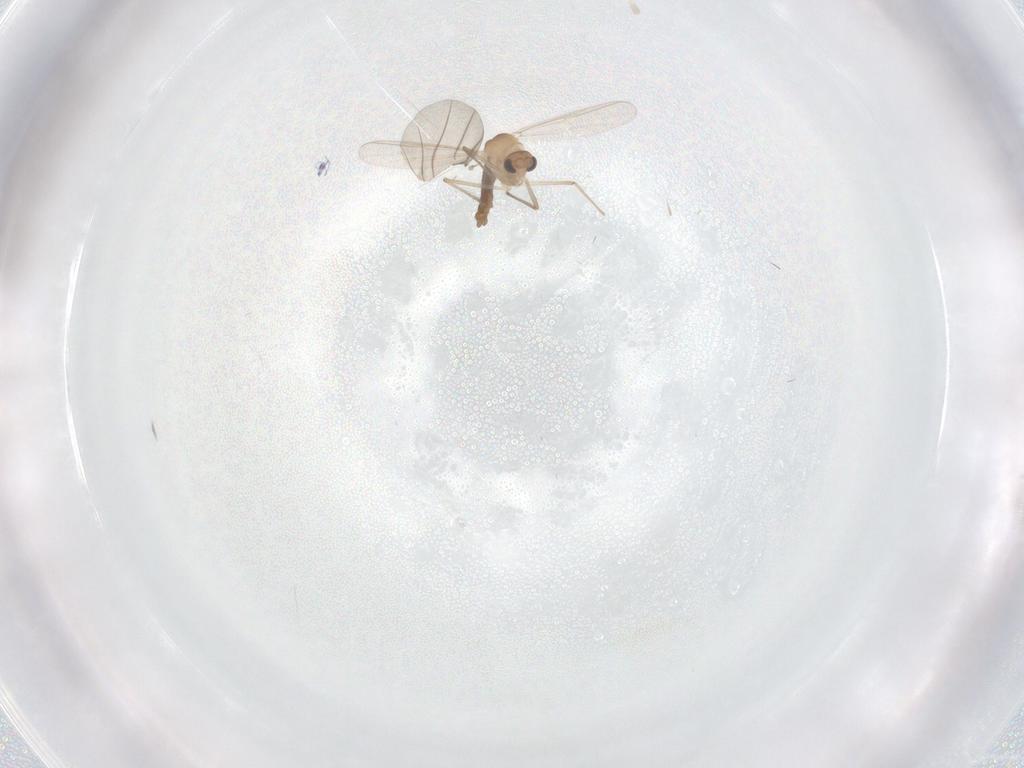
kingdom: Animalia
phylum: Arthropoda
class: Insecta
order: Diptera
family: Chironomidae
